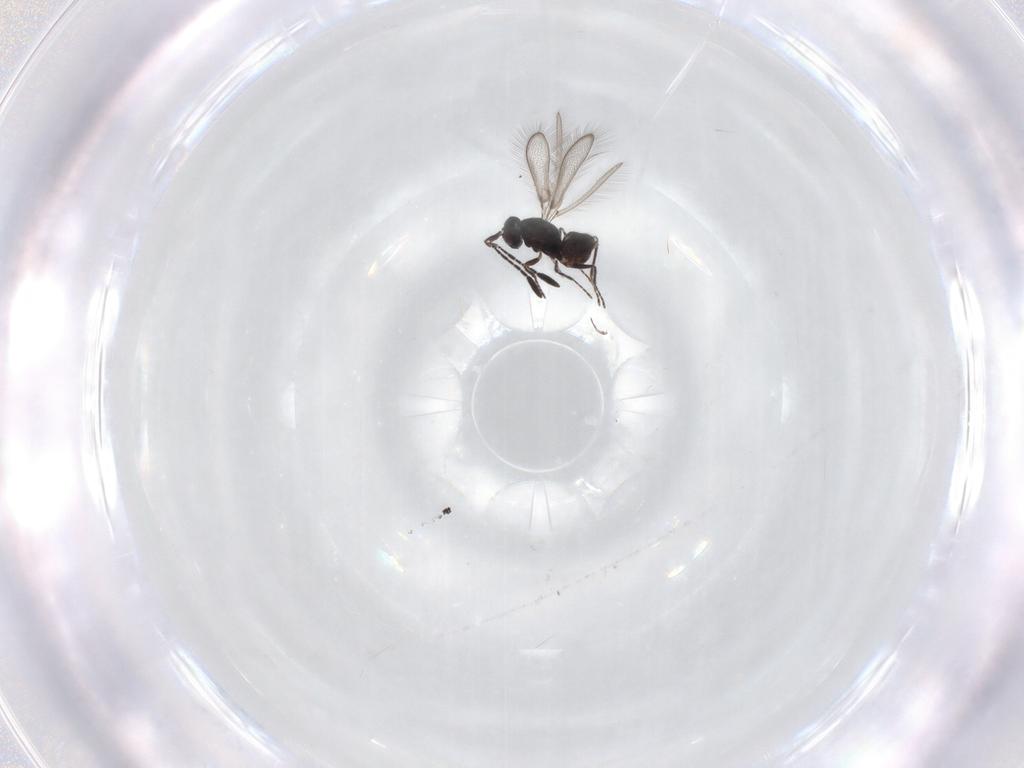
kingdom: Animalia
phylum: Arthropoda
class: Insecta
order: Hymenoptera
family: Mymaridae
